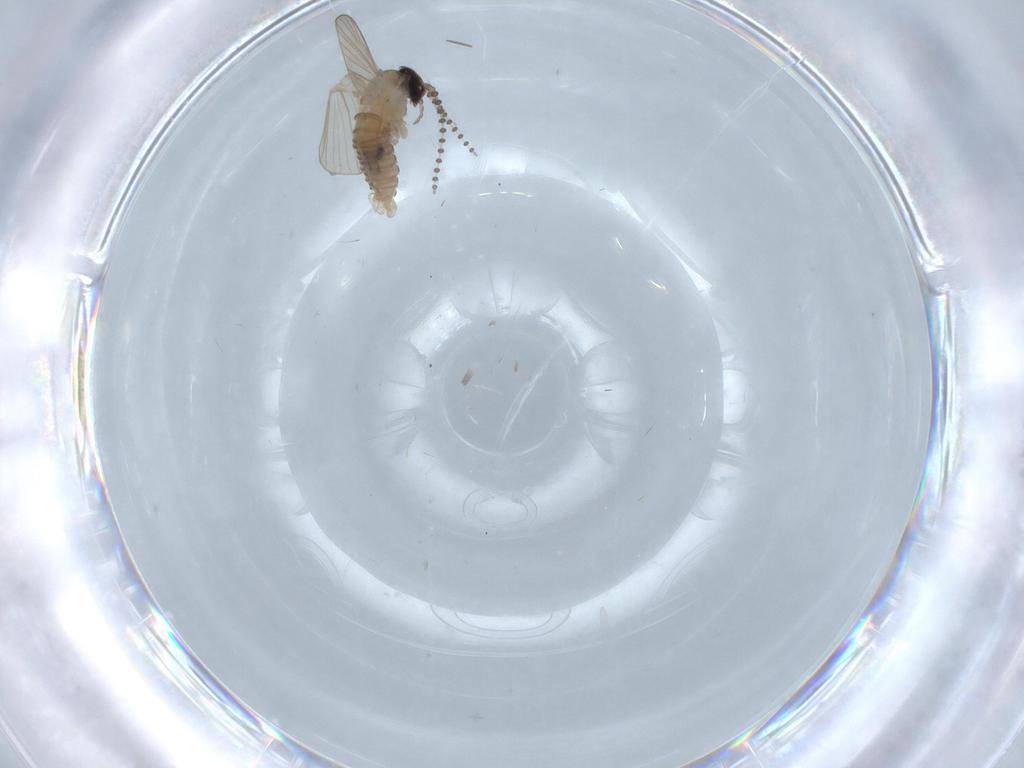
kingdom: Animalia
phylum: Arthropoda
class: Insecta
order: Diptera
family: Psychodidae
